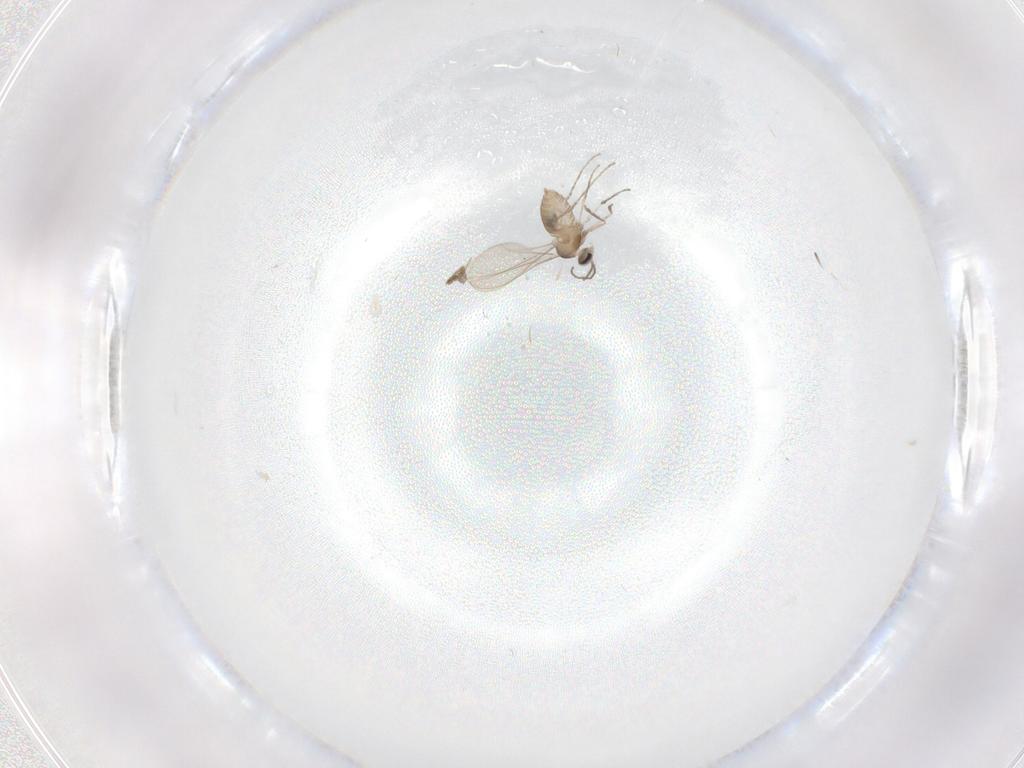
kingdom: Animalia
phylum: Arthropoda
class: Insecta
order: Diptera
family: Cecidomyiidae
